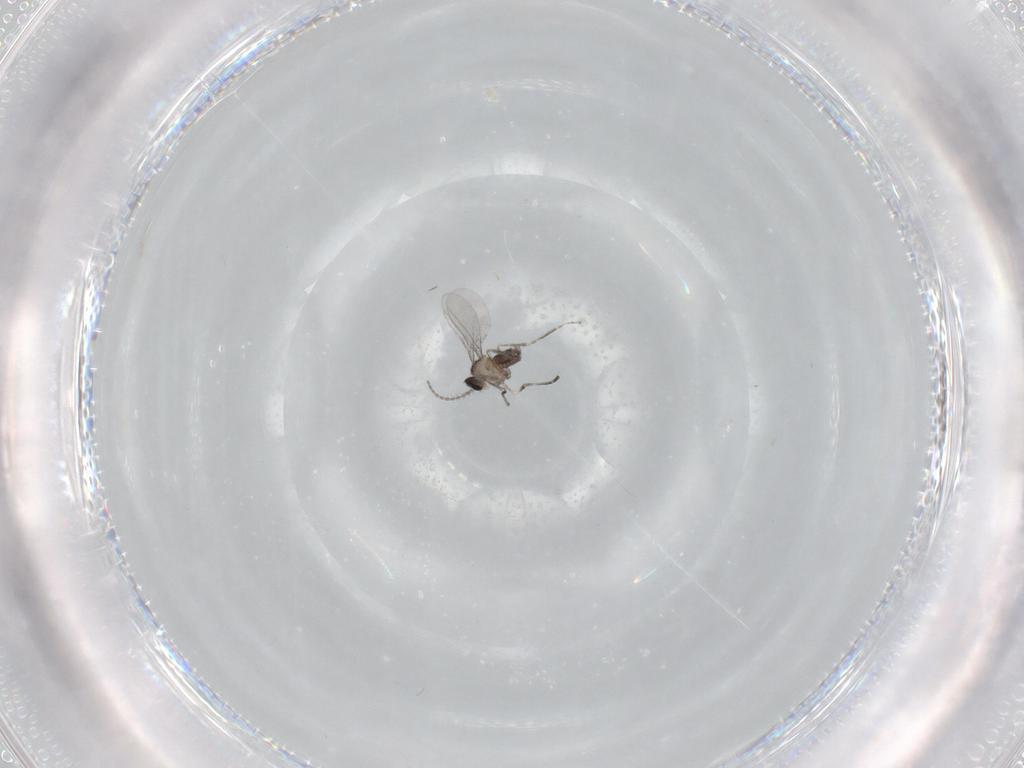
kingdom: Animalia
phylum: Arthropoda
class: Insecta
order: Diptera
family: Cecidomyiidae
